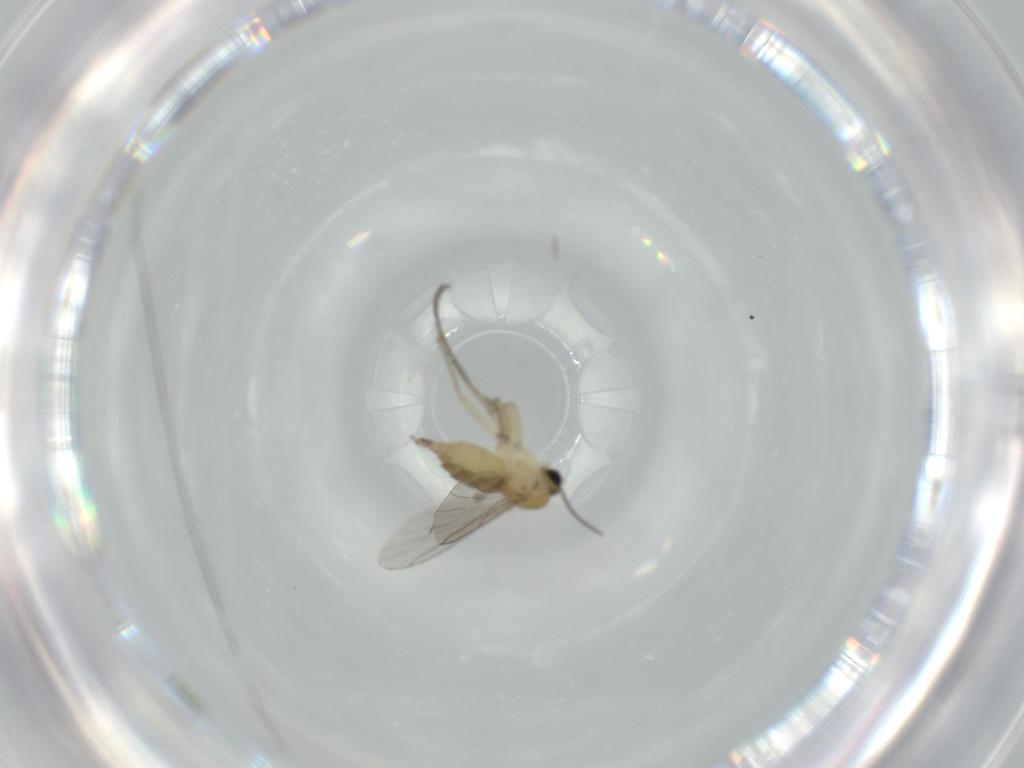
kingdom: Animalia
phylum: Arthropoda
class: Insecta
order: Diptera
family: Sciaridae
